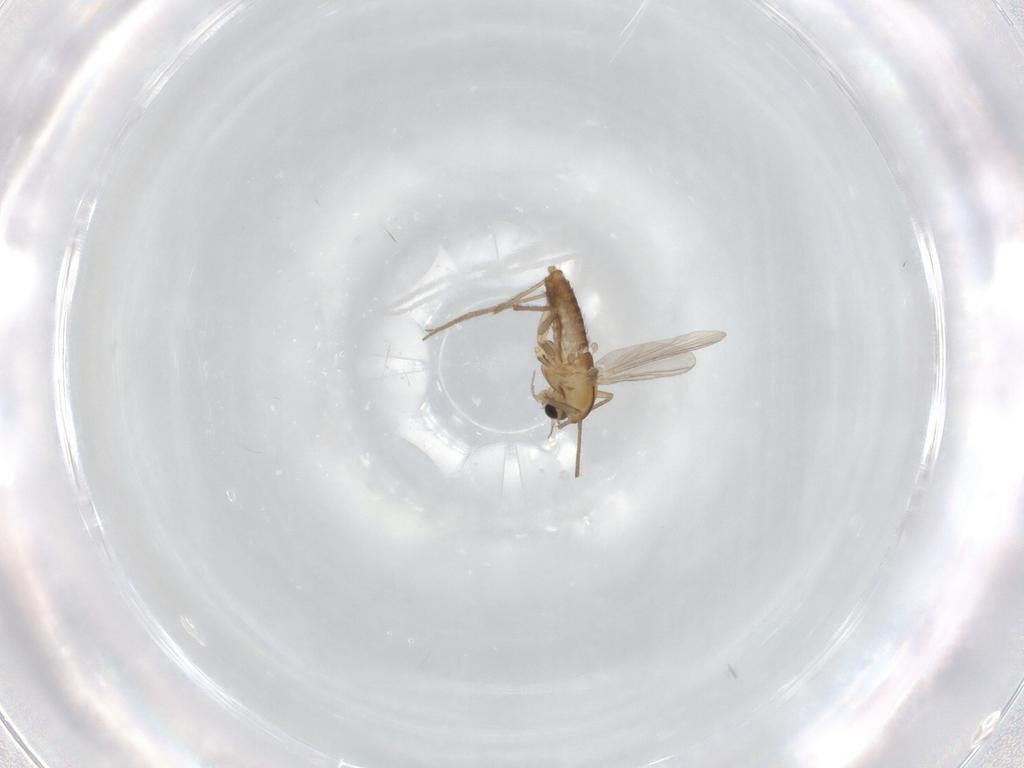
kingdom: Animalia
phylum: Arthropoda
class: Insecta
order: Diptera
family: Chironomidae
